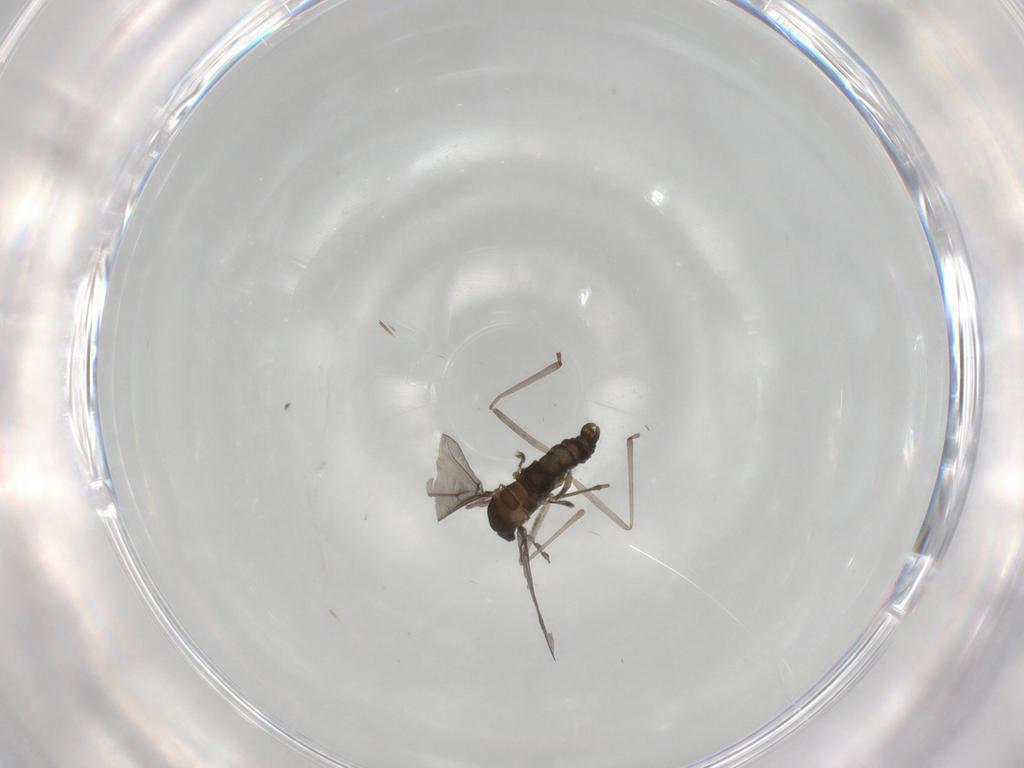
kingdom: Animalia
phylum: Arthropoda
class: Insecta
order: Diptera
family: Cecidomyiidae
